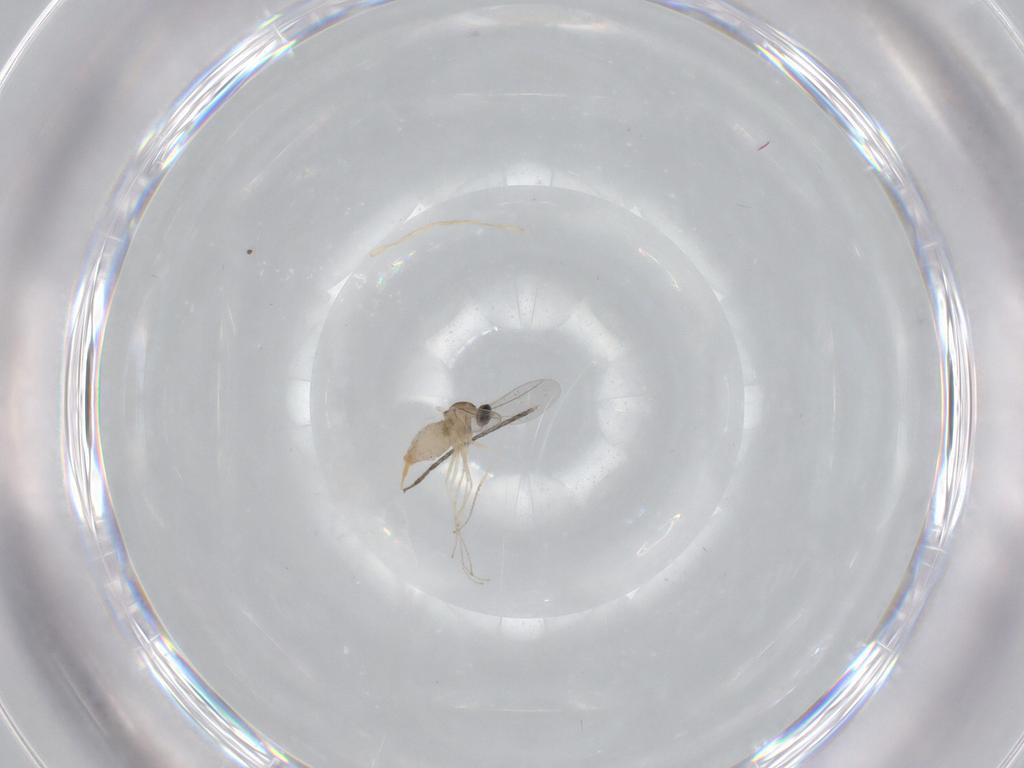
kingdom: Animalia
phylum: Arthropoda
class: Insecta
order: Diptera
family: Cecidomyiidae
